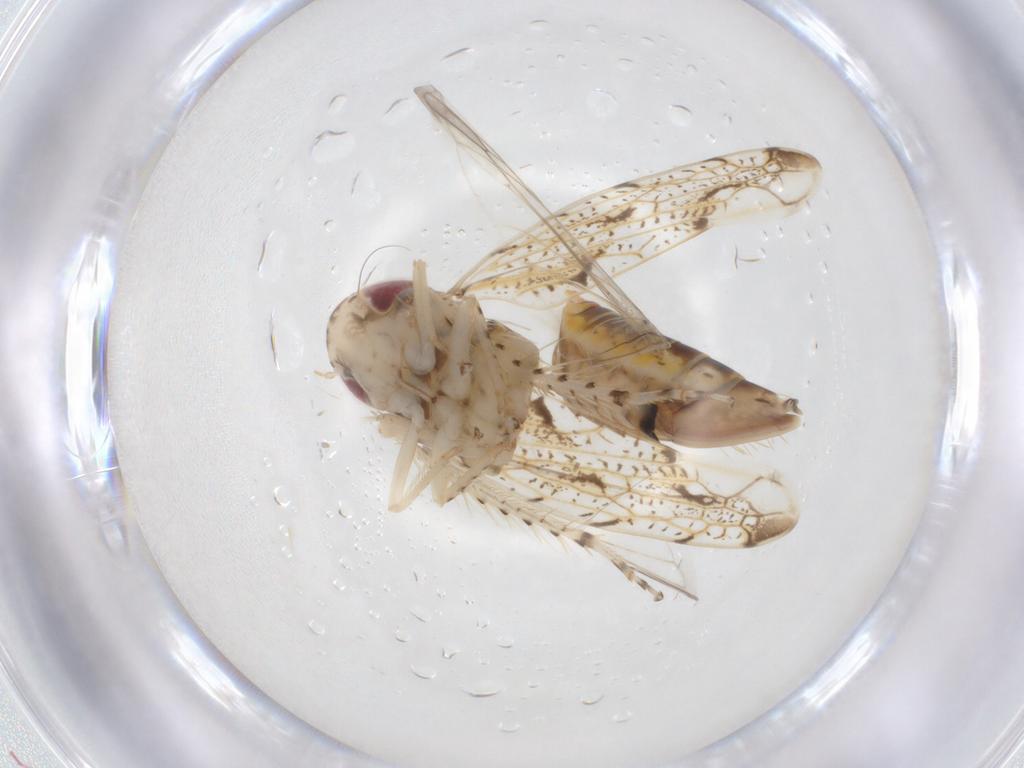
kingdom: Animalia
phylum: Arthropoda
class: Insecta
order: Hemiptera
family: Cicadellidae
